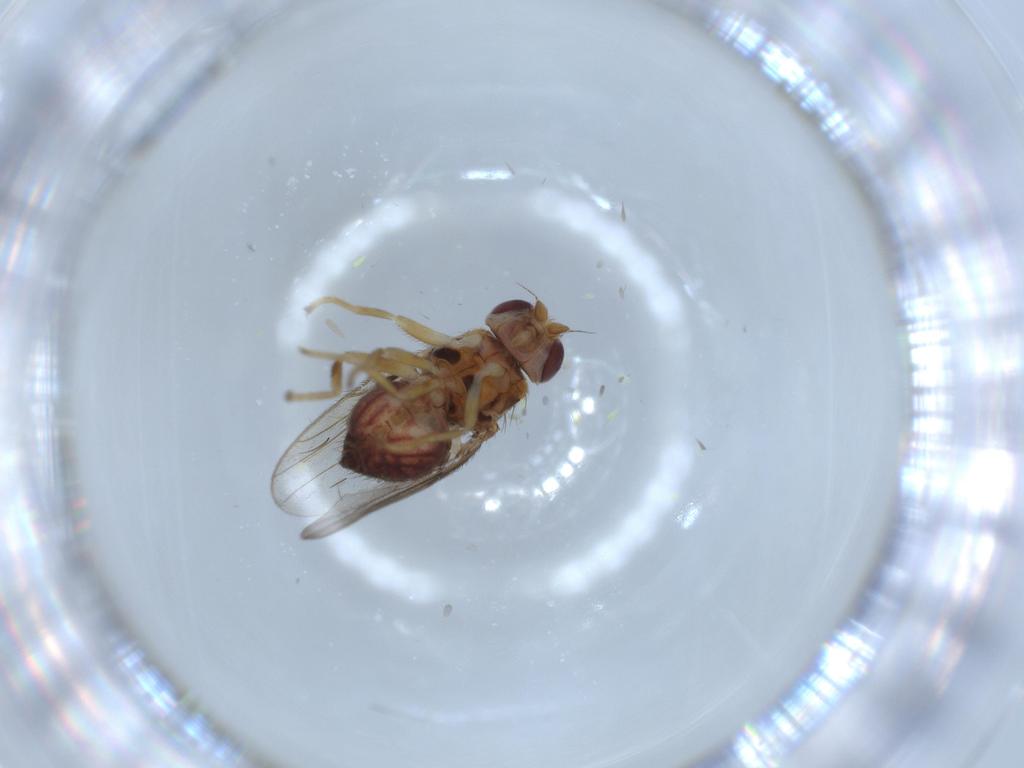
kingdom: Animalia
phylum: Arthropoda
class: Insecta
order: Diptera
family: Chloropidae
